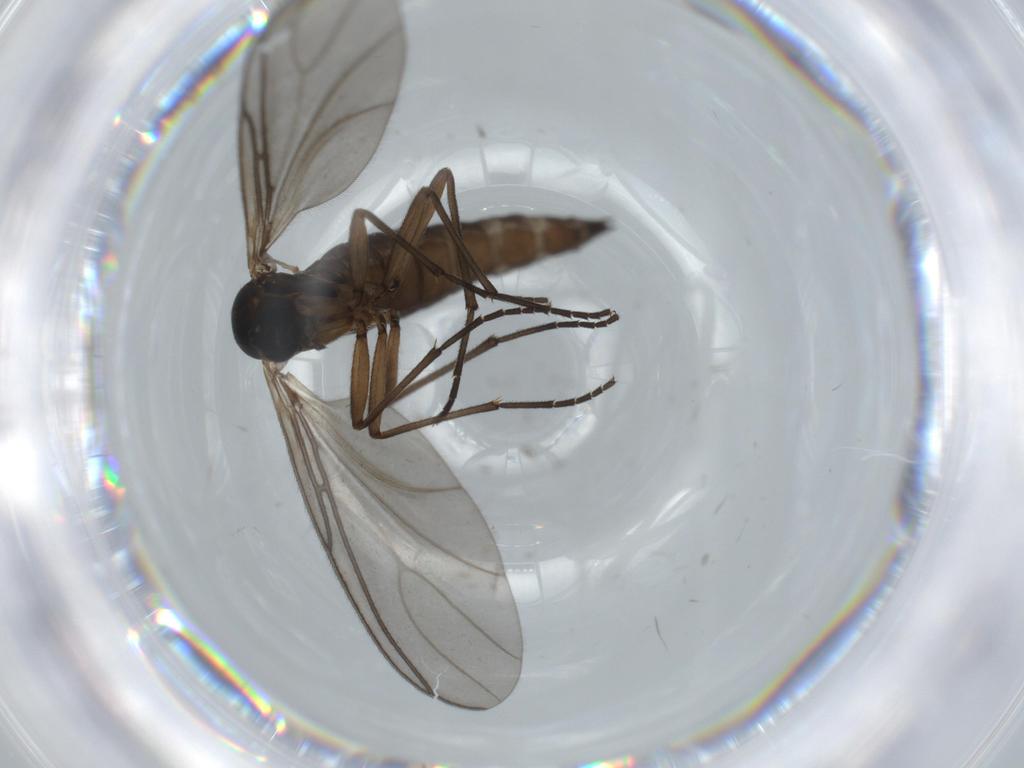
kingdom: Animalia
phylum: Arthropoda
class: Insecta
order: Diptera
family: Sciaridae
